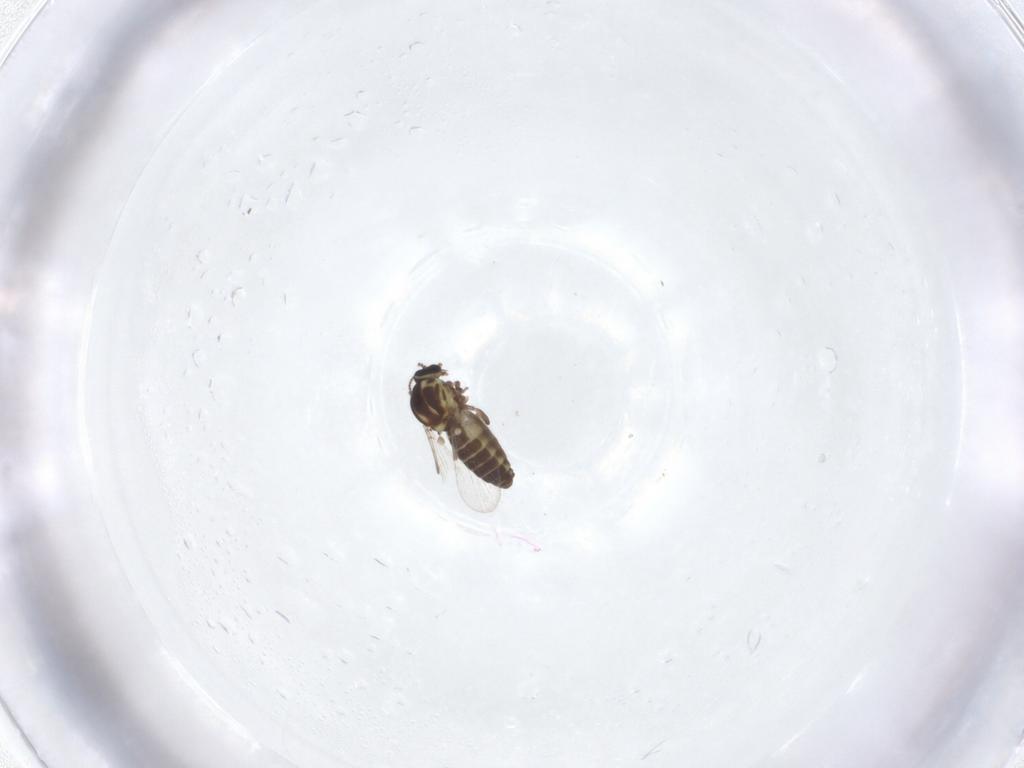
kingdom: Animalia
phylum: Arthropoda
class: Insecta
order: Diptera
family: Ceratopogonidae
